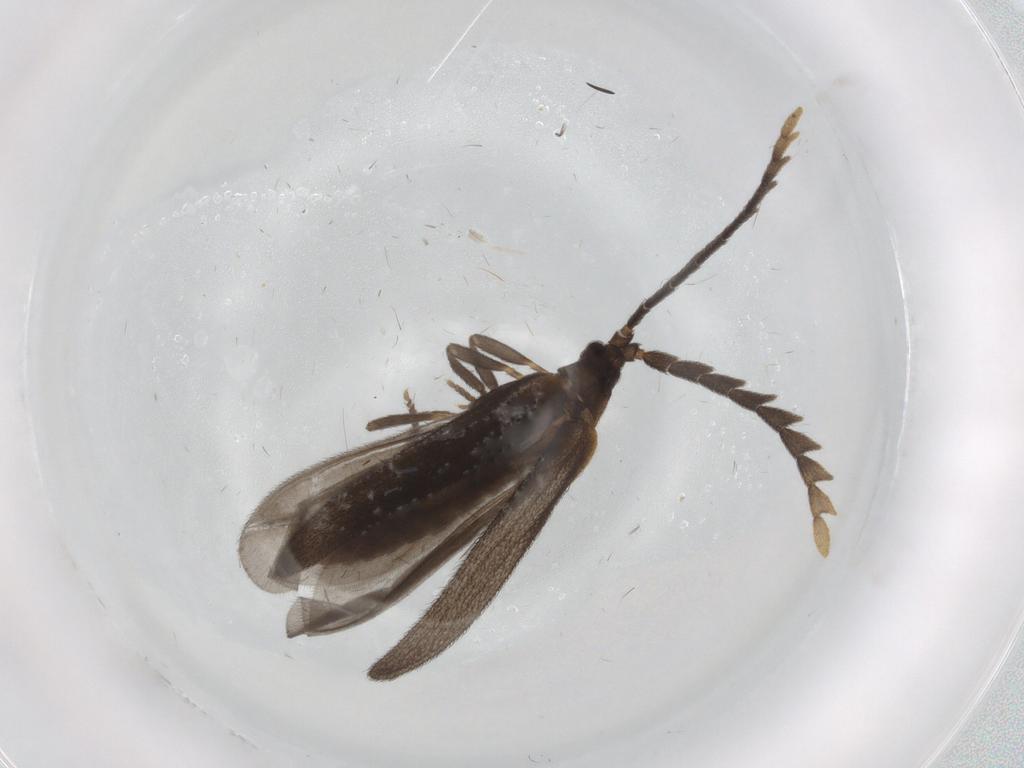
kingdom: Animalia
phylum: Arthropoda
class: Insecta
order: Coleoptera
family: Lycidae
